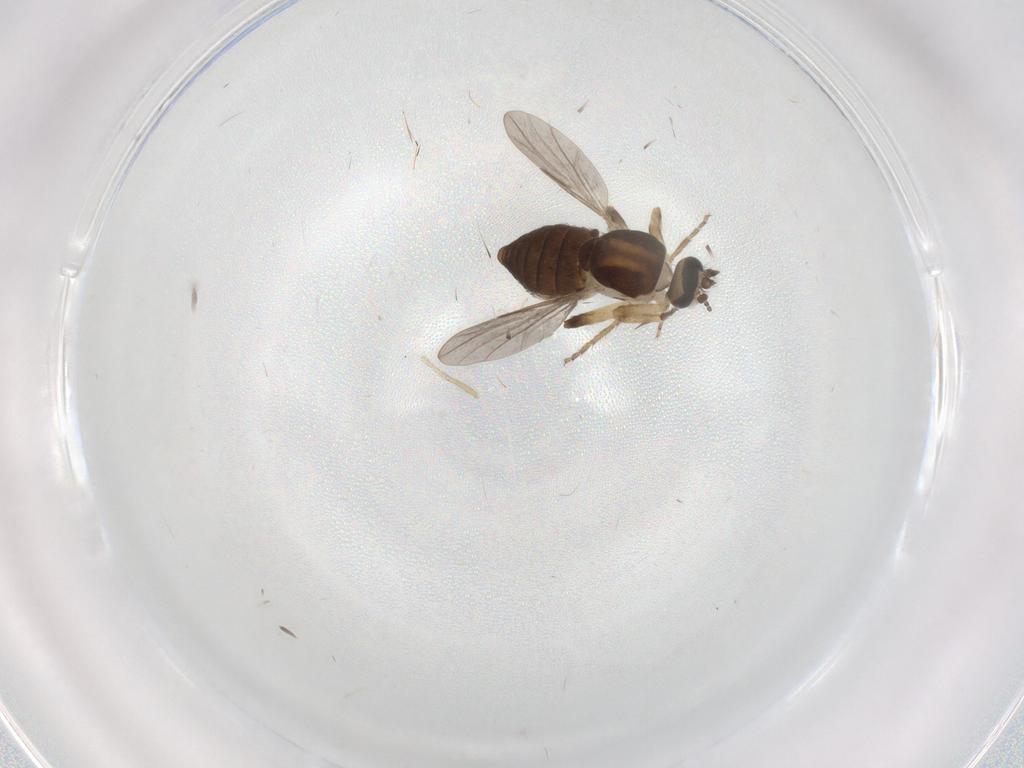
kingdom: Animalia
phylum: Arthropoda
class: Insecta
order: Diptera
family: Ceratopogonidae
